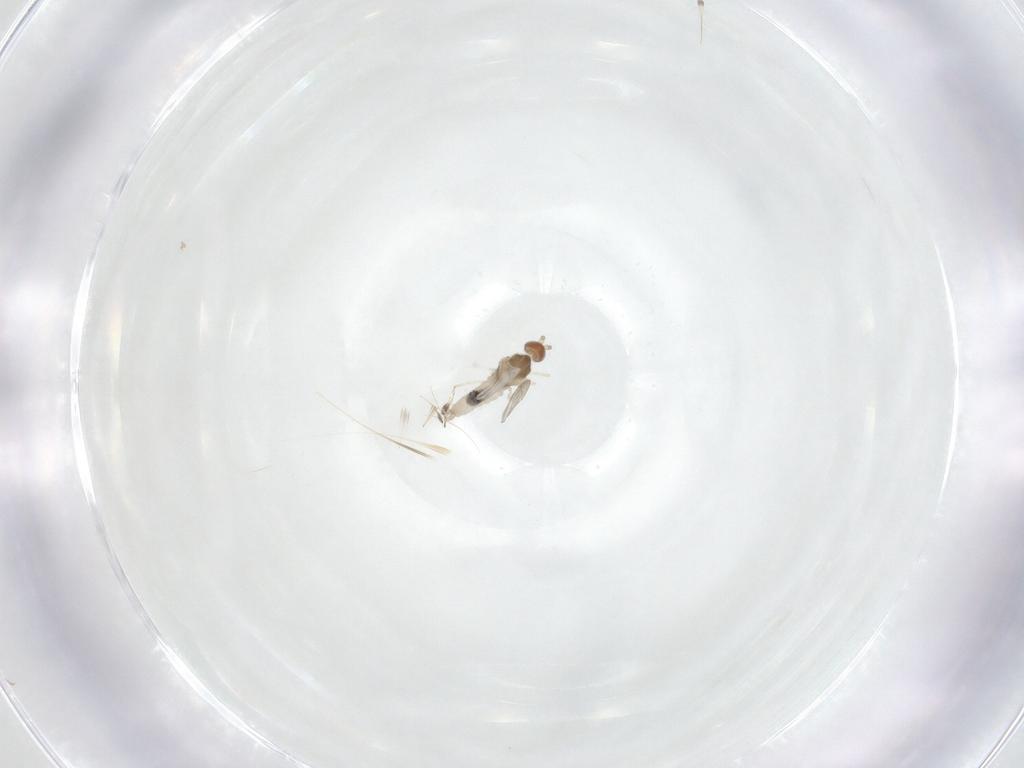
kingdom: Animalia
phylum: Arthropoda
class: Insecta
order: Diptera
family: Cecidomyiidae
